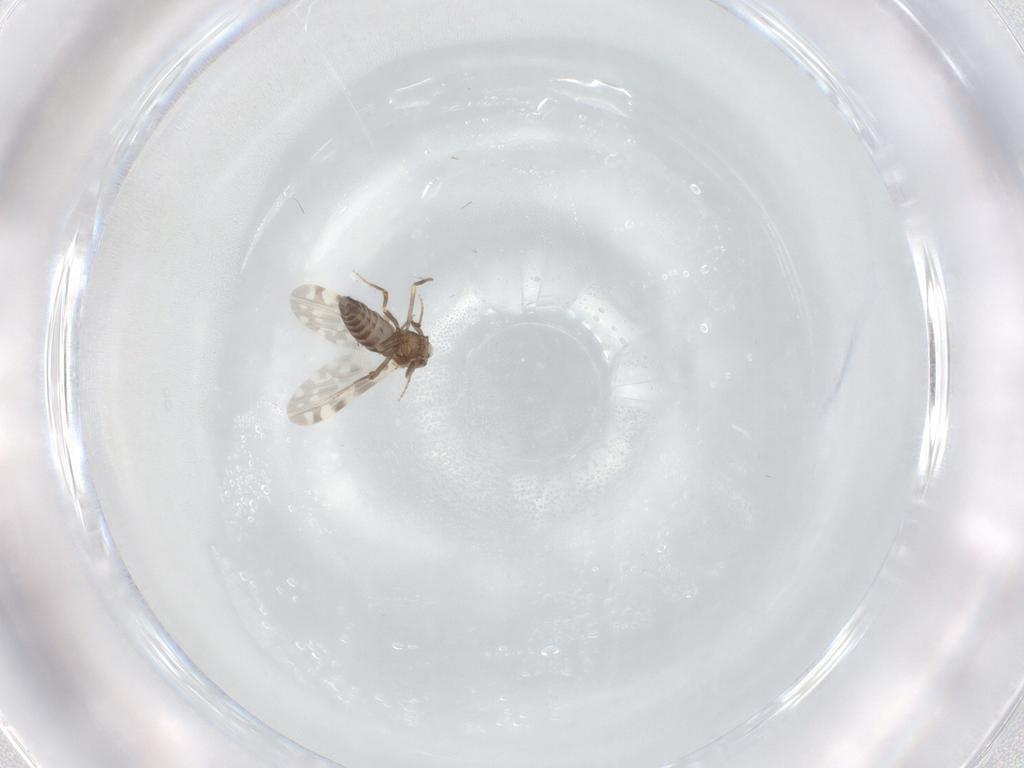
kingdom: Animalia
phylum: Arthropoda
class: Insecta
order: Diptera
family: Ceratopogonidae
